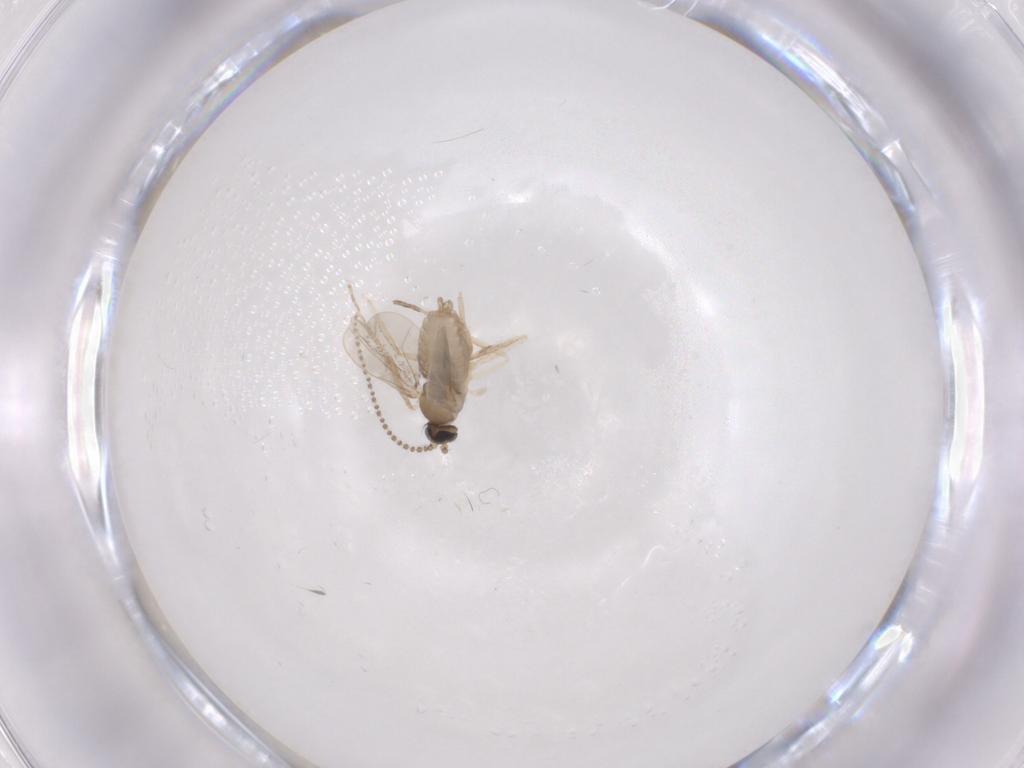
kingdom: Animalia
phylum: Arthropoda
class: Insecta
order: Diptera
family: Cecidomyiidae
